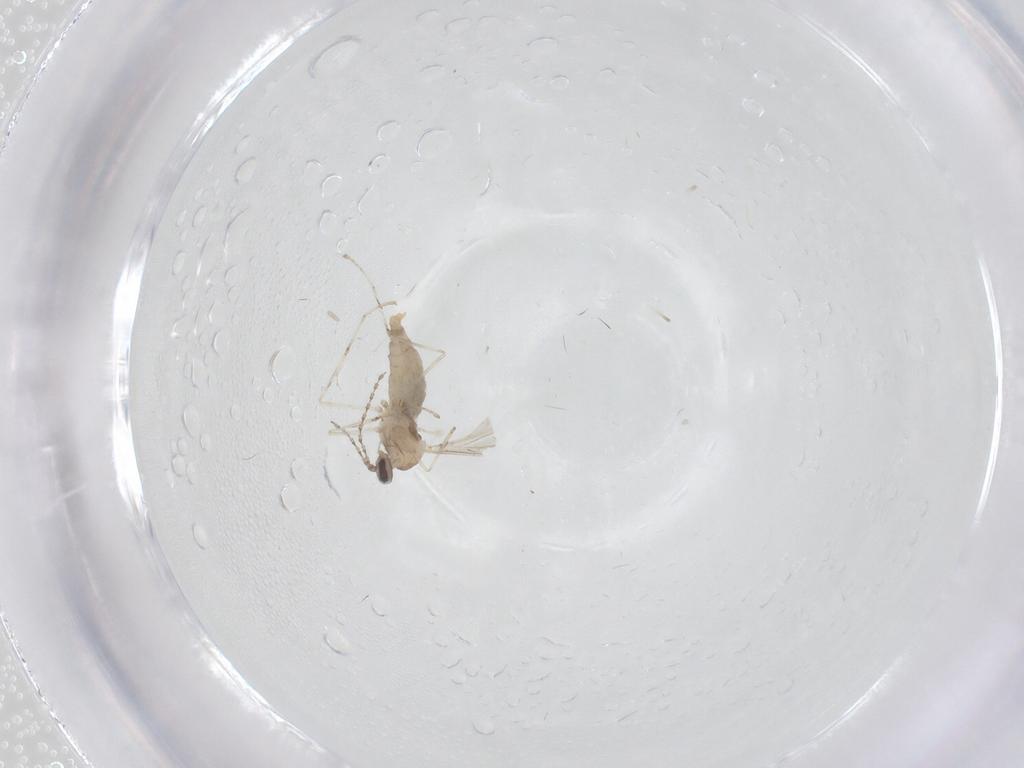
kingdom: Animalia
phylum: Arthropoda
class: Insecta
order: Diptera
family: Cecidomyiidae
